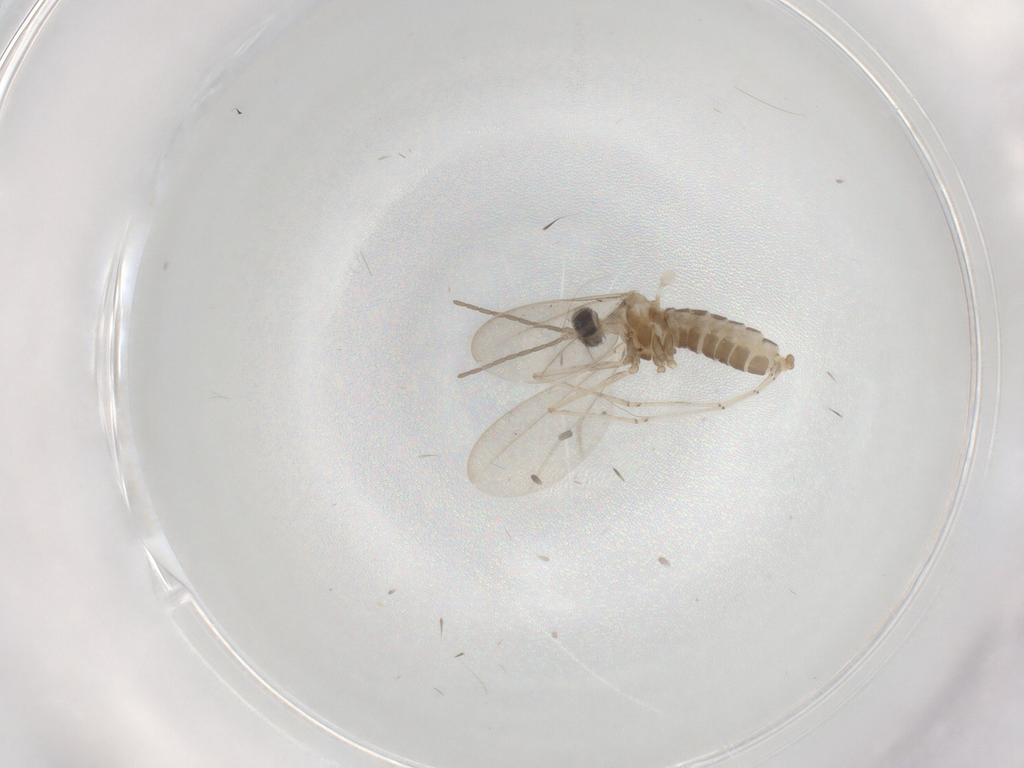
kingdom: Animalia
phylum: Arthropoda
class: Insecta
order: Diptera
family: Cecidomyiidae
